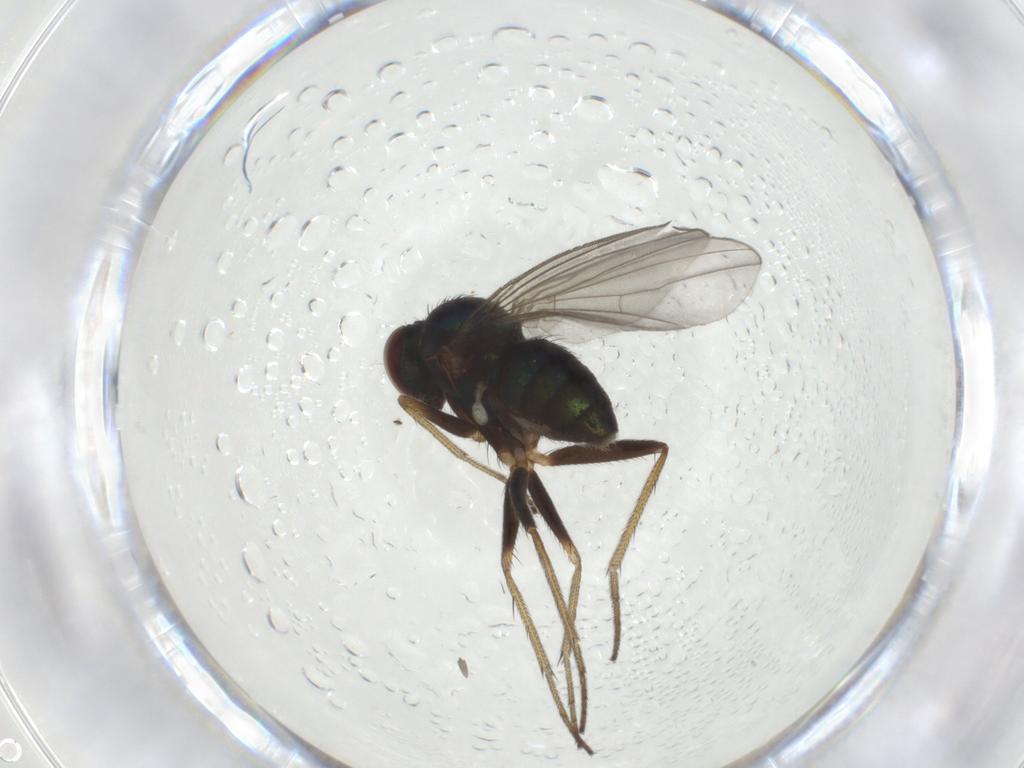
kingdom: Animalia
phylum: Arthropoda
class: Insecta
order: Diptera
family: Dolichopodidae
